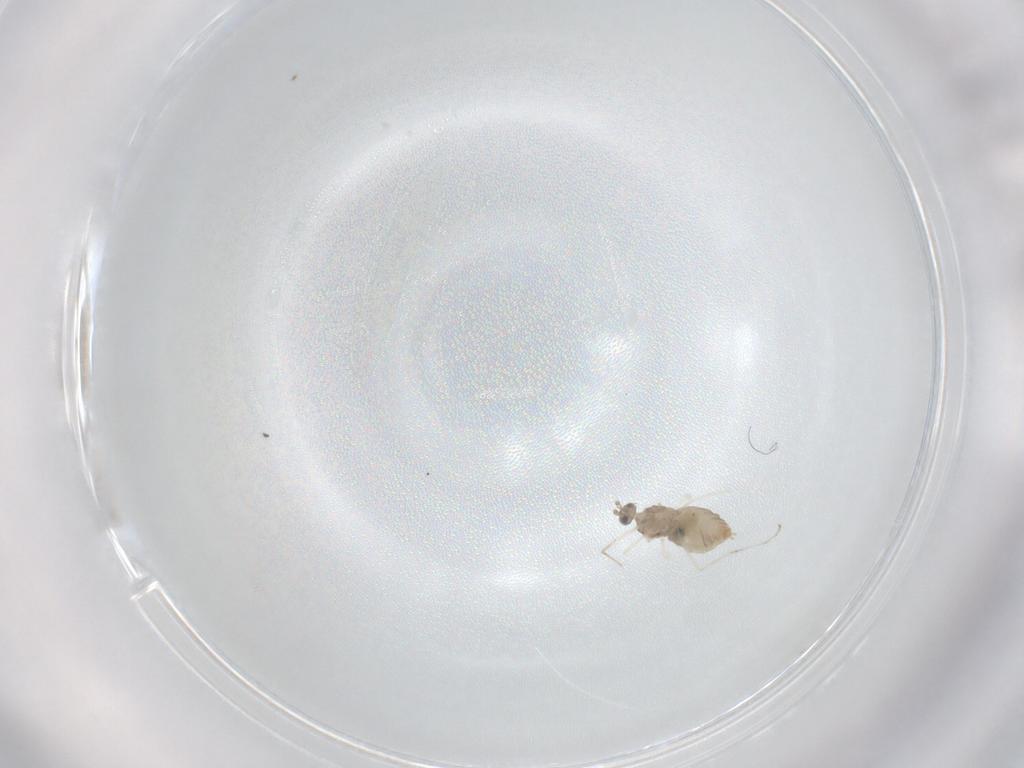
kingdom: Animalia
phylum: Arthropoda
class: Insecta
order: Diptera
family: Cecidomyiidae
